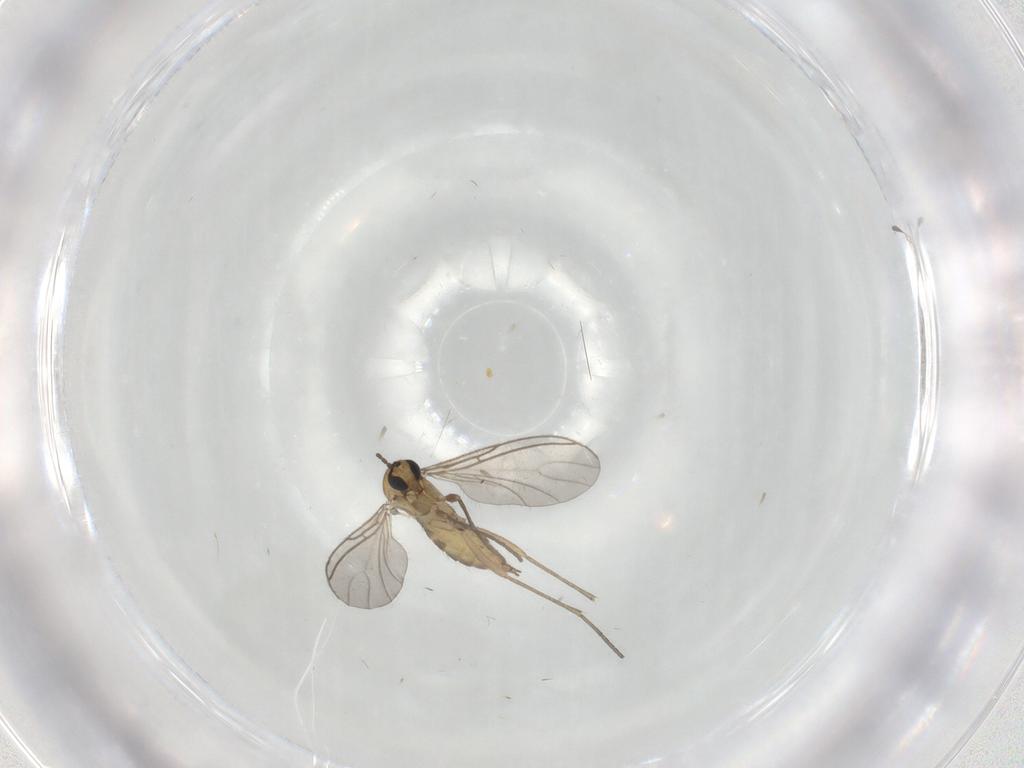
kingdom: Animalia
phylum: Arthropoda
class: Insecta
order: Diptera
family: Sciaridae
